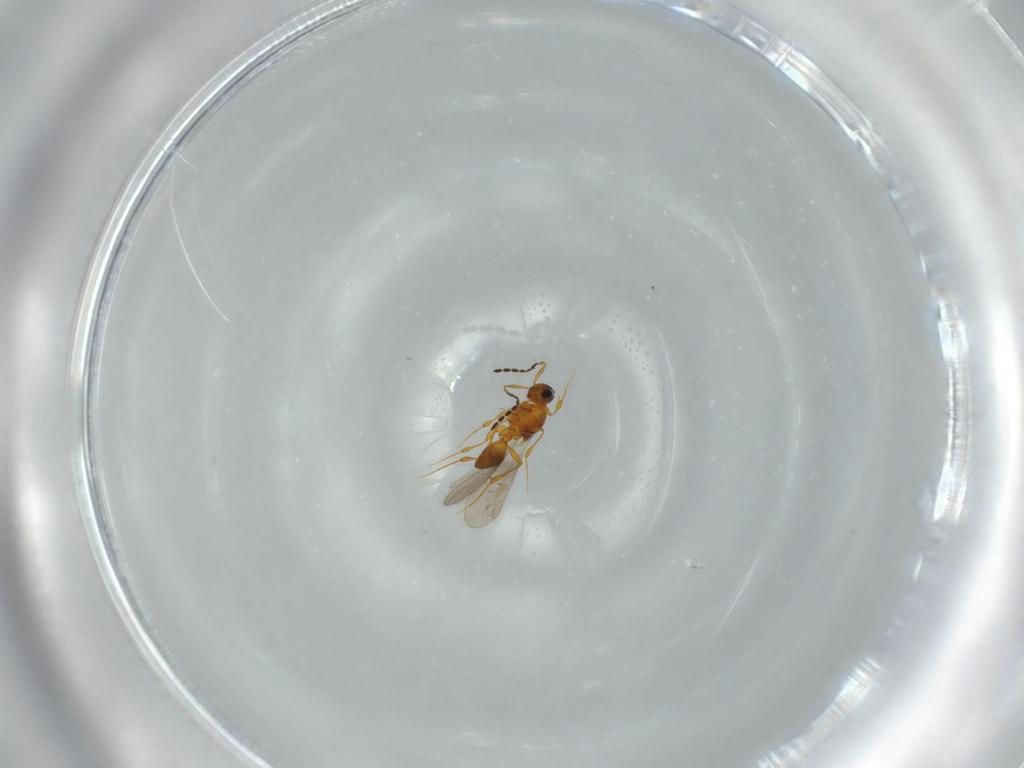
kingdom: Animalia
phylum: Arthropoda
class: Insecta
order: Hymenoptera
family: Platygastridae
